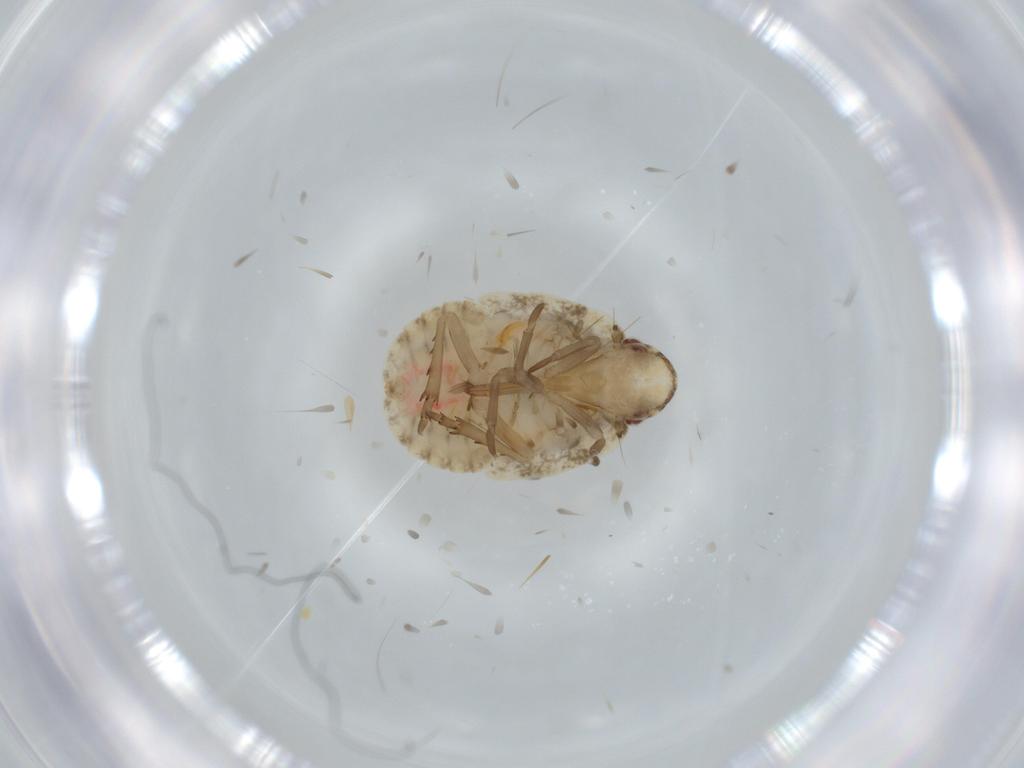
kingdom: Animalia
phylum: Arthropoda
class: Insecta
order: Hemiptera
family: Flatidae
